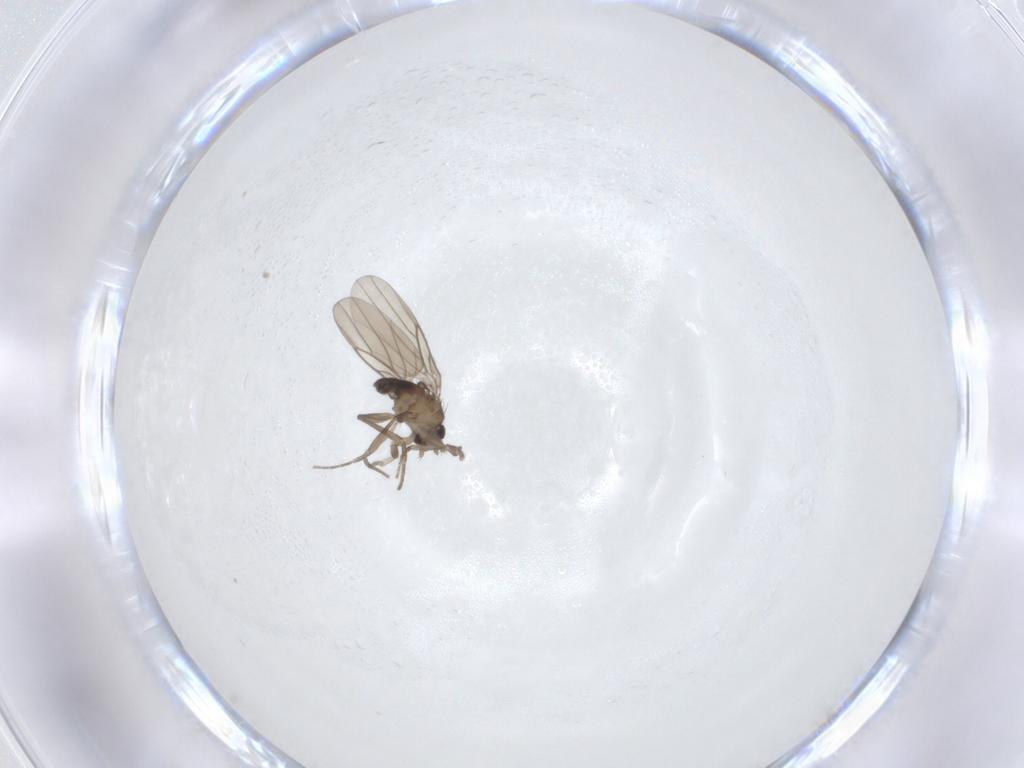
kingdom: Animalia
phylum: Arthropoda
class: Insecta
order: Diptera
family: Phoridae
